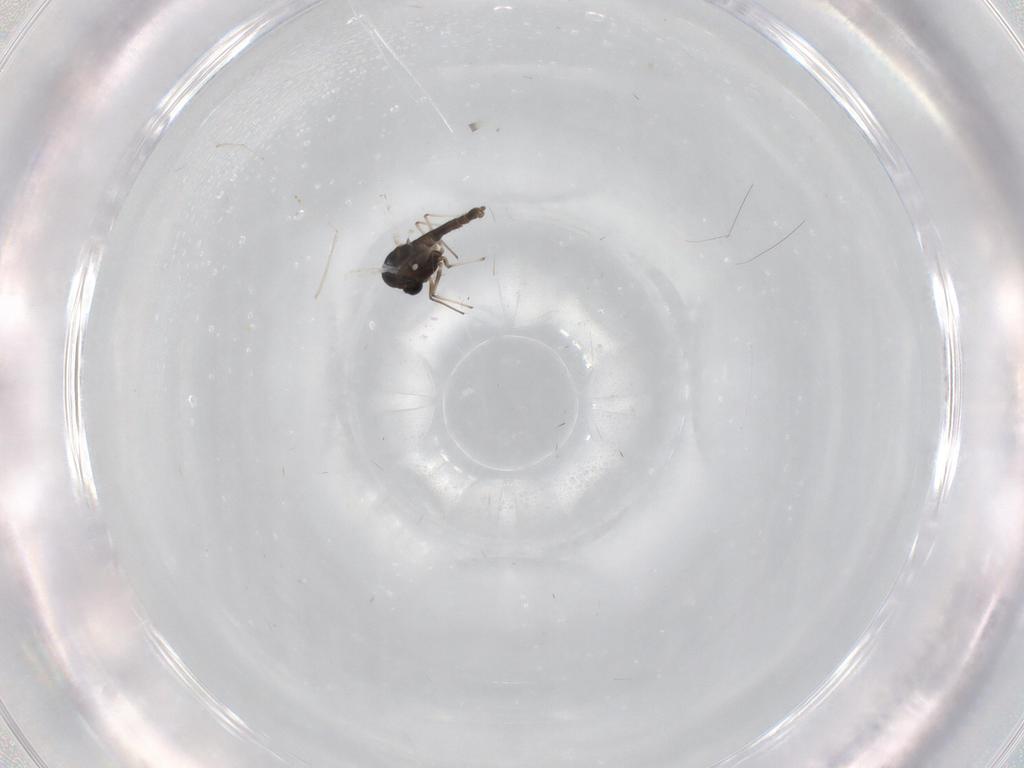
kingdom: Animalia
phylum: Arthropoda
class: Insecta
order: Diptera
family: Chironomidae
